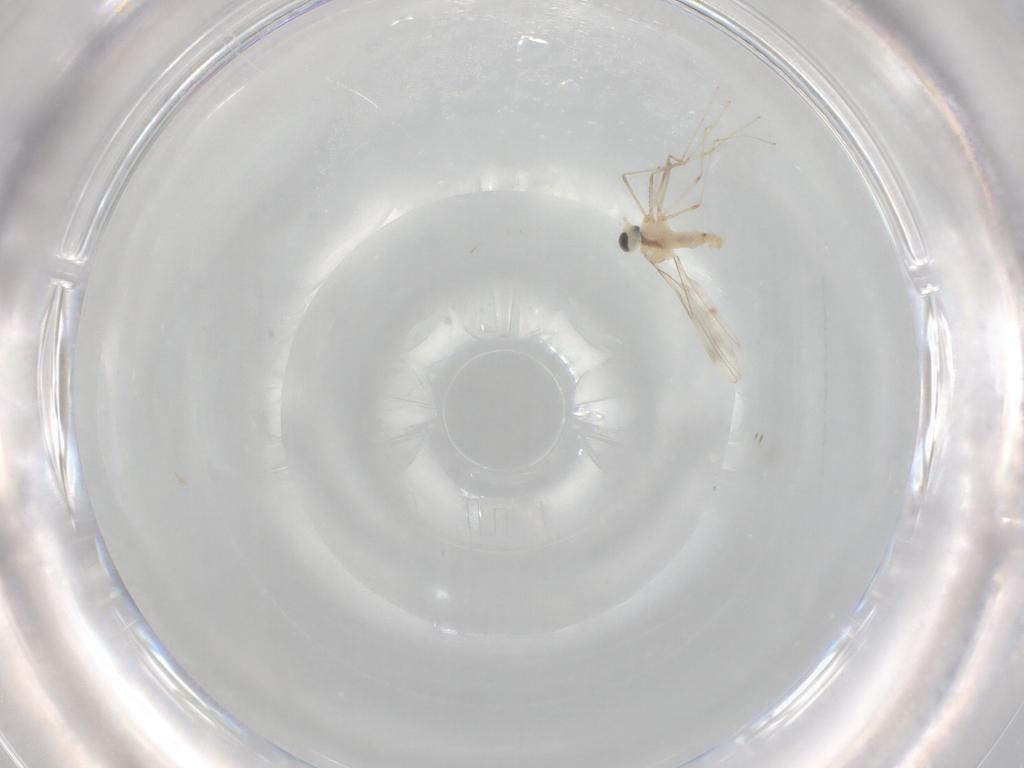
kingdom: Animalia
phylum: Arthropoda
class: Insecta
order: Diptera
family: Cecidomyiidae
